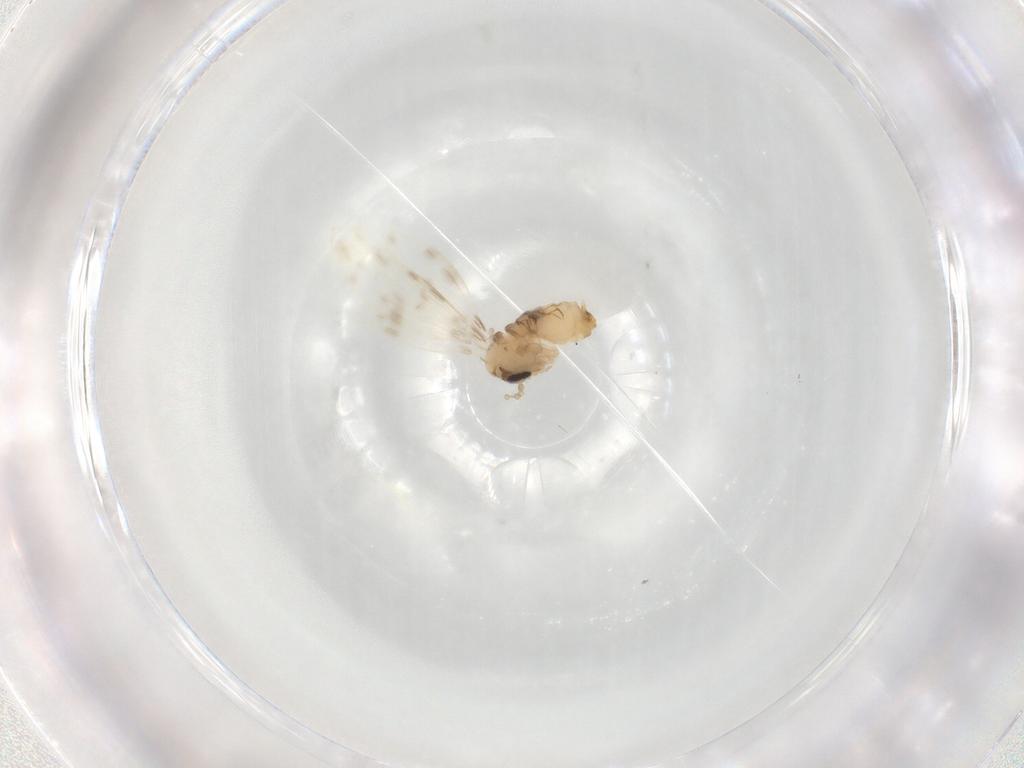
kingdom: Animalia
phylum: Arthropoda
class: Insecta
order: Diptera
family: Psychodidae
